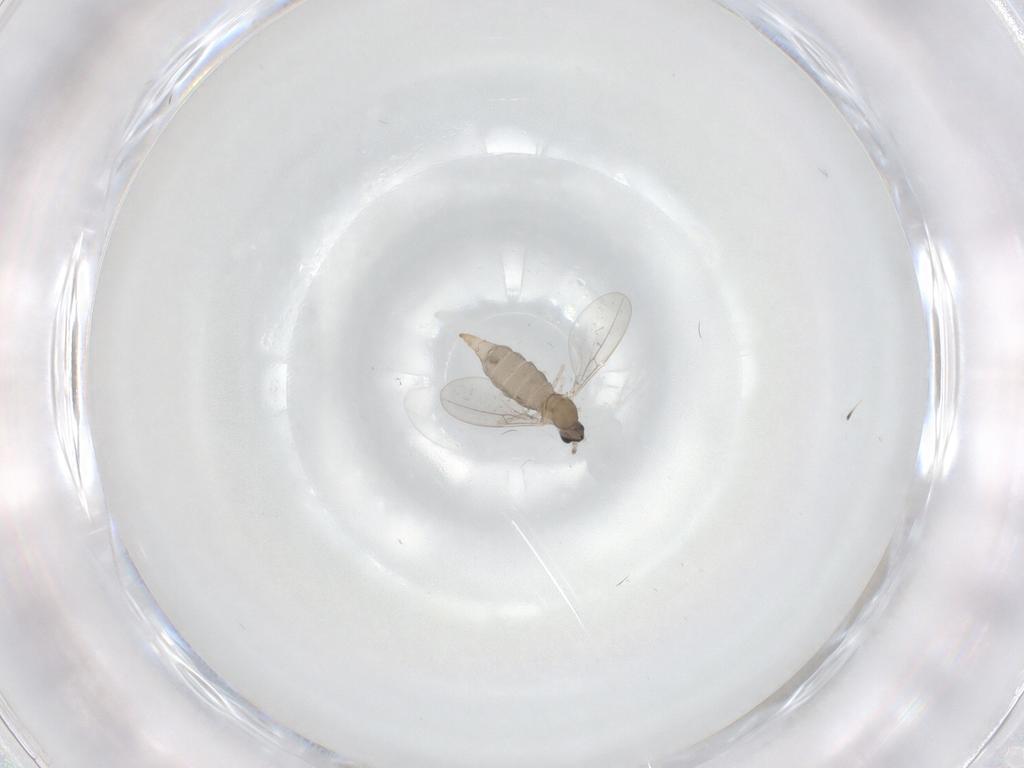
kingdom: Animalia
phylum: Arthropoda
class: Insecta
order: Diptera
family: Cecidomyiidae
